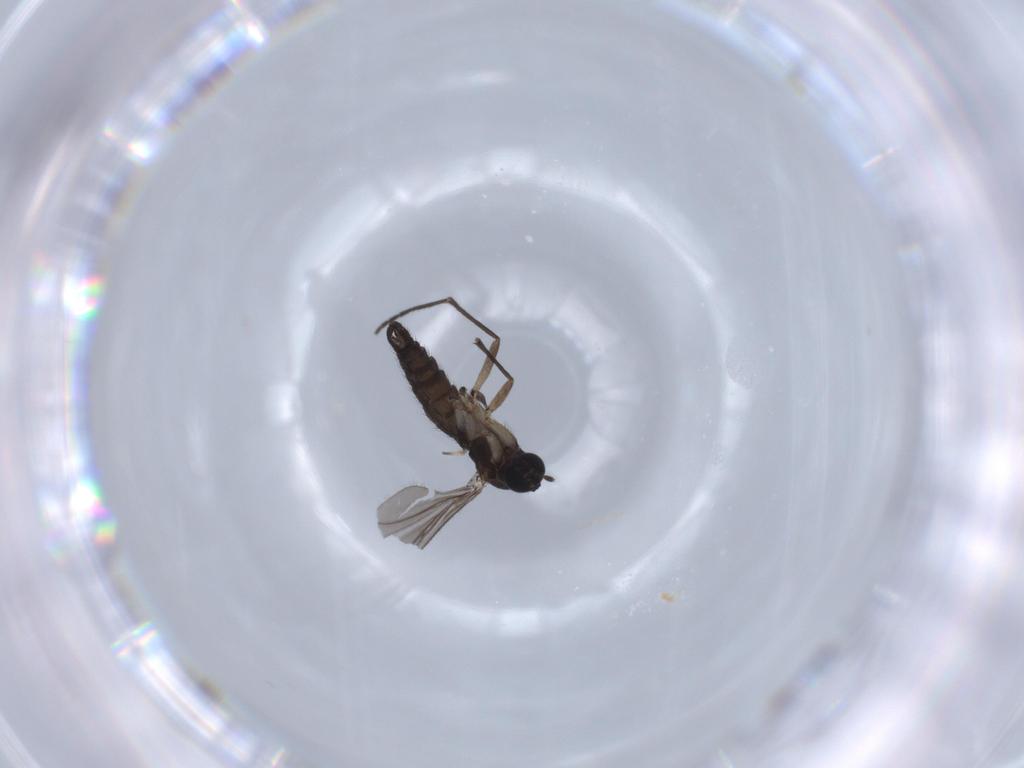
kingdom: Animalia
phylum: Arthropoda
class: Insecta
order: Diptera
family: Sciaridae
